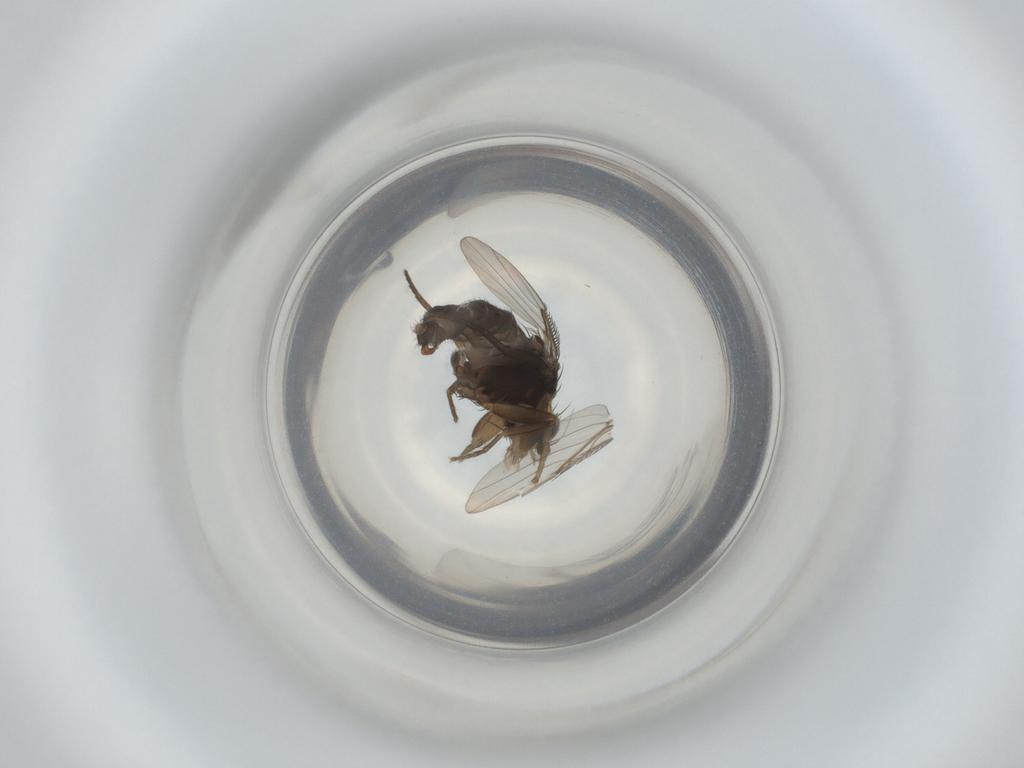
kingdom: Animalia
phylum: Arthropoda
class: Insecta
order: Diptera
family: Phoridae
